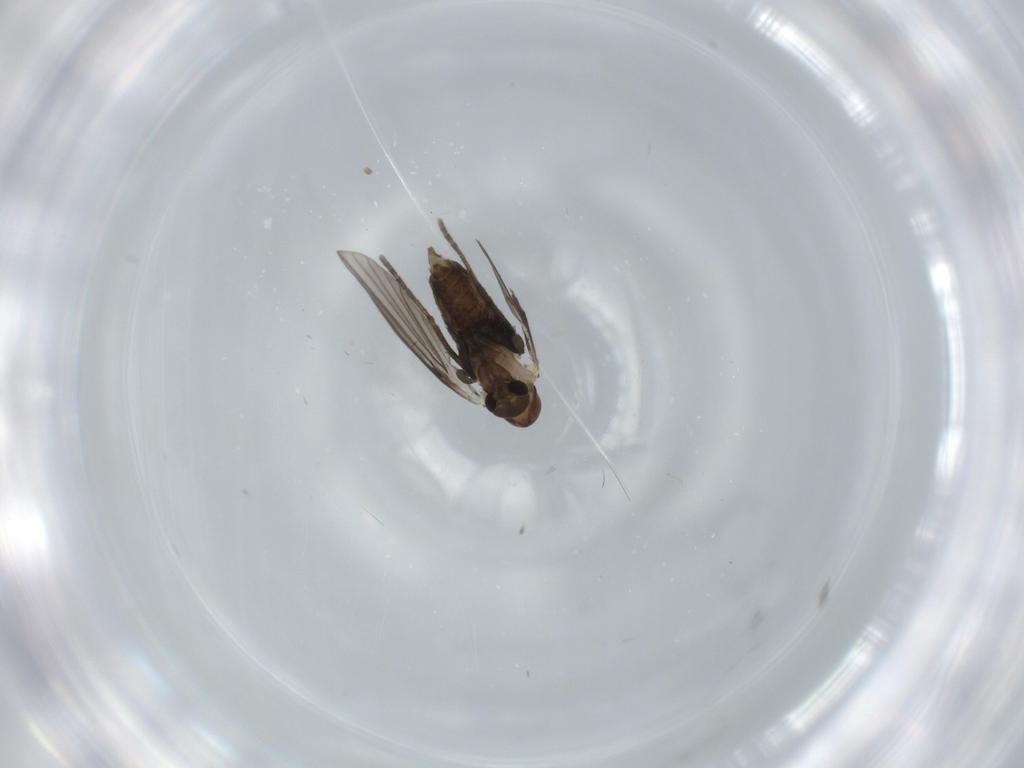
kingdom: Animalia
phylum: Arthropoda
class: Insecta
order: Diptera
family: Psychodidae
